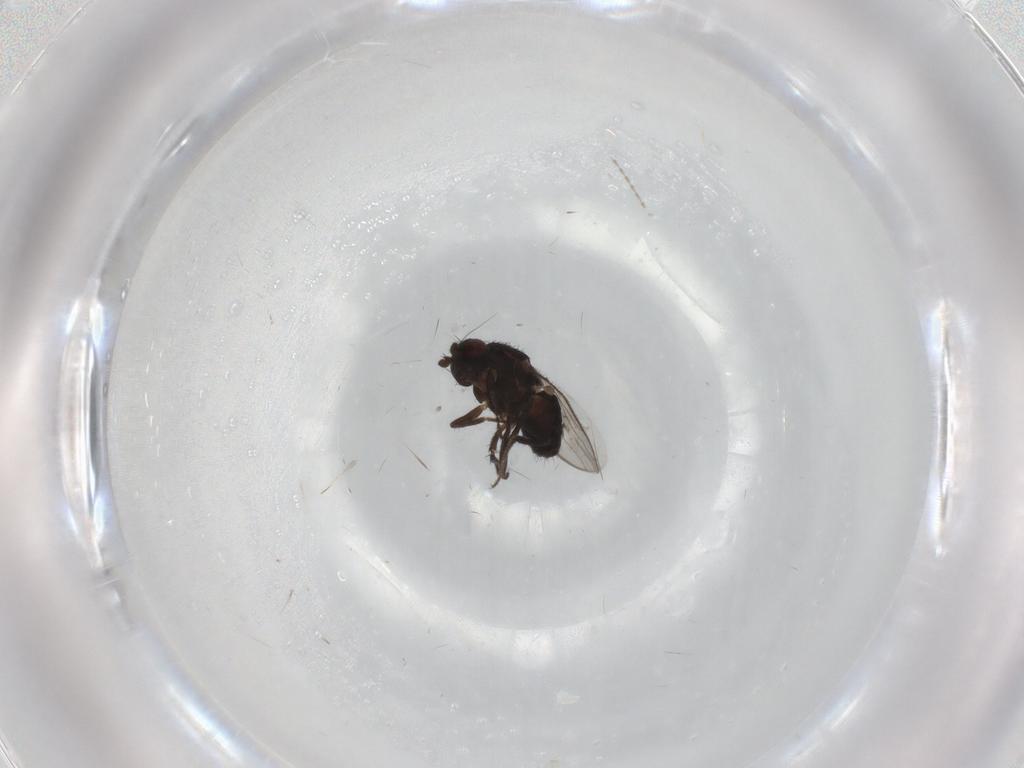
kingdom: Animalia
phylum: Arthropoda
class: Insecta
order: Diptera
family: Sphaeroceridae
